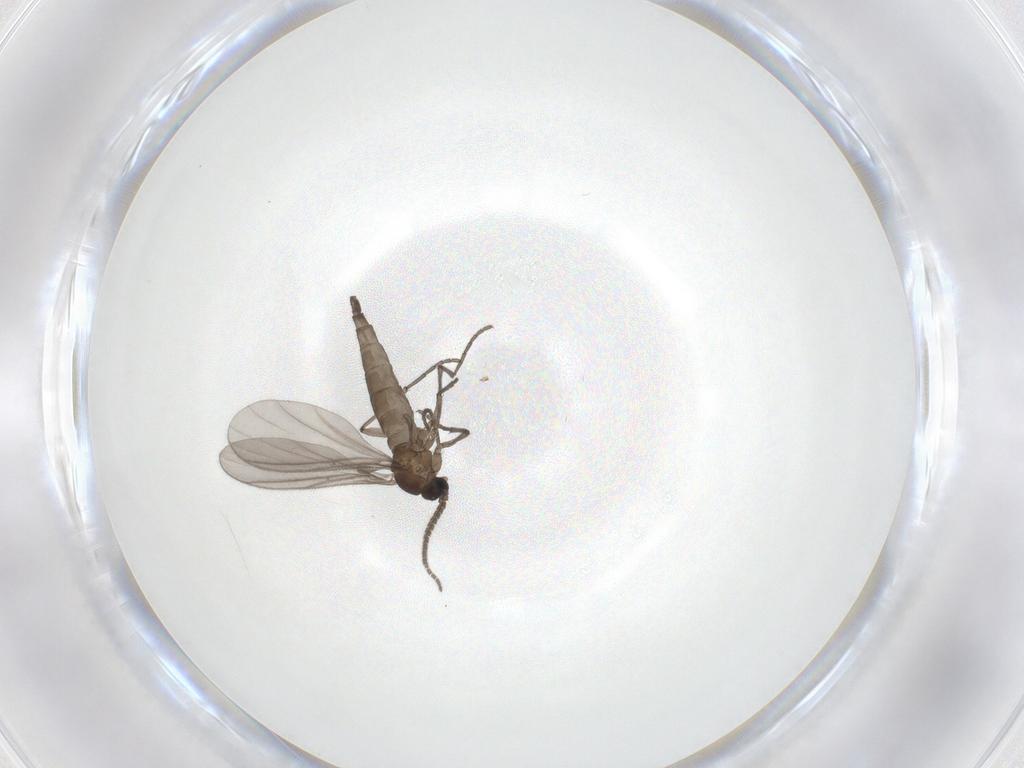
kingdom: Animalia
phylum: Arthropoda
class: Insecta
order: Diptera
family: Sciaridae
